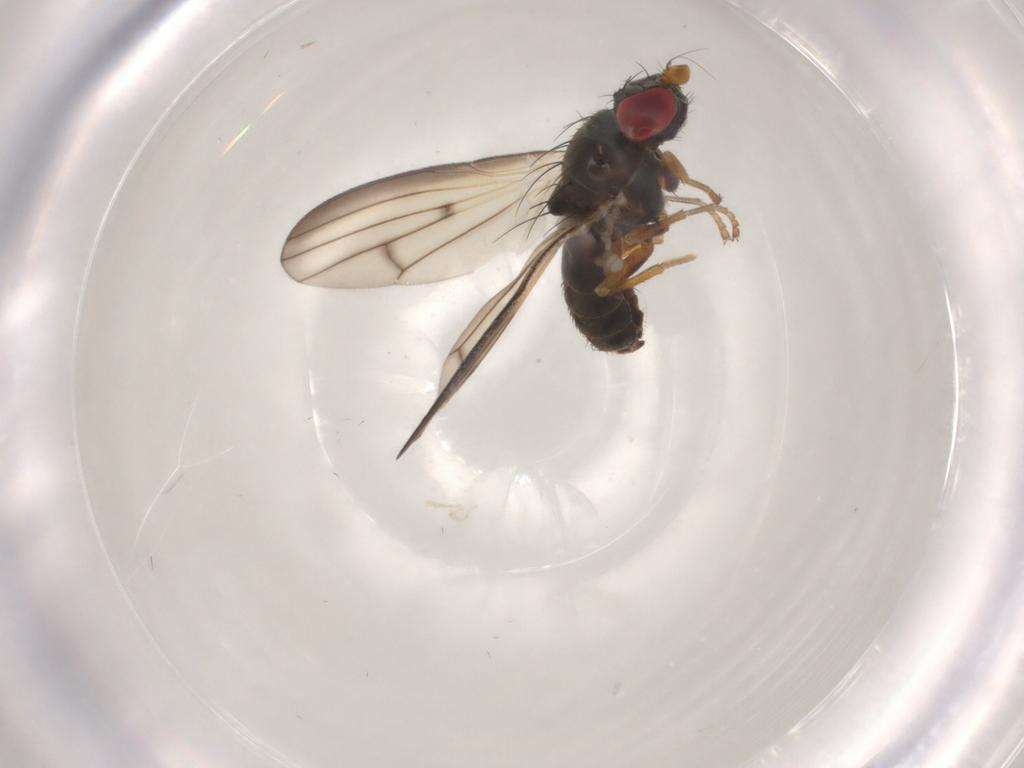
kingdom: Animalia
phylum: Arthropoda
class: Insecta
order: Diptera
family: Chamaemyiidae
